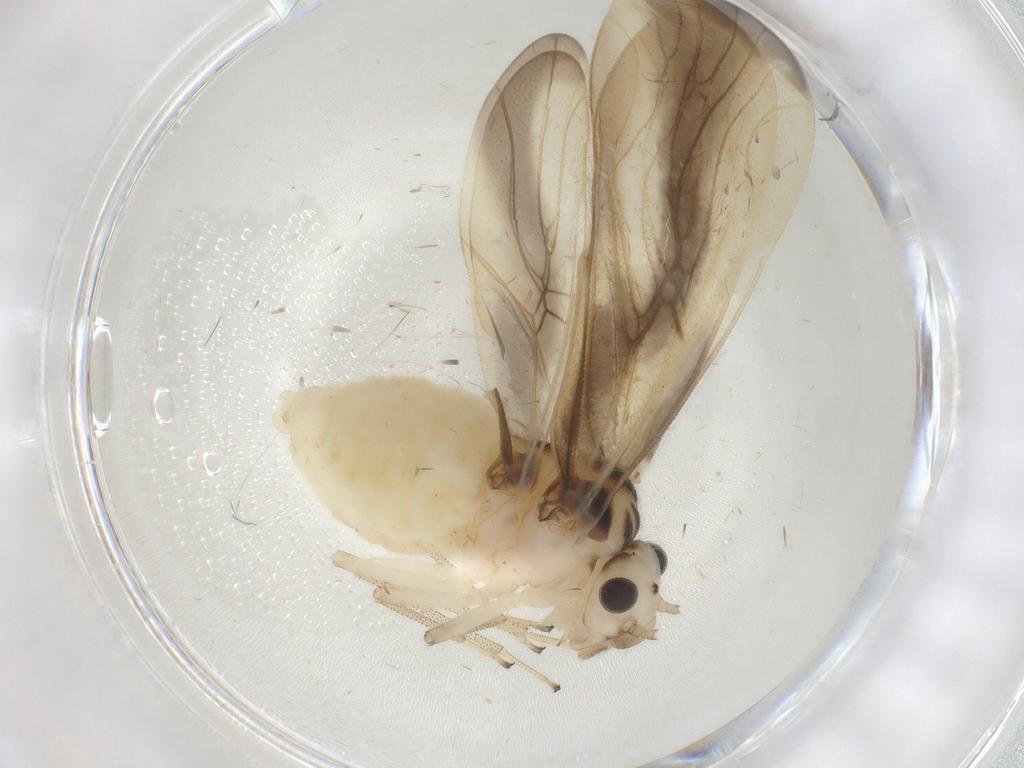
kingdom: Animalia
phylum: Arthropoda
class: Insecta
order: Psocodea
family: Amphipsocidae
